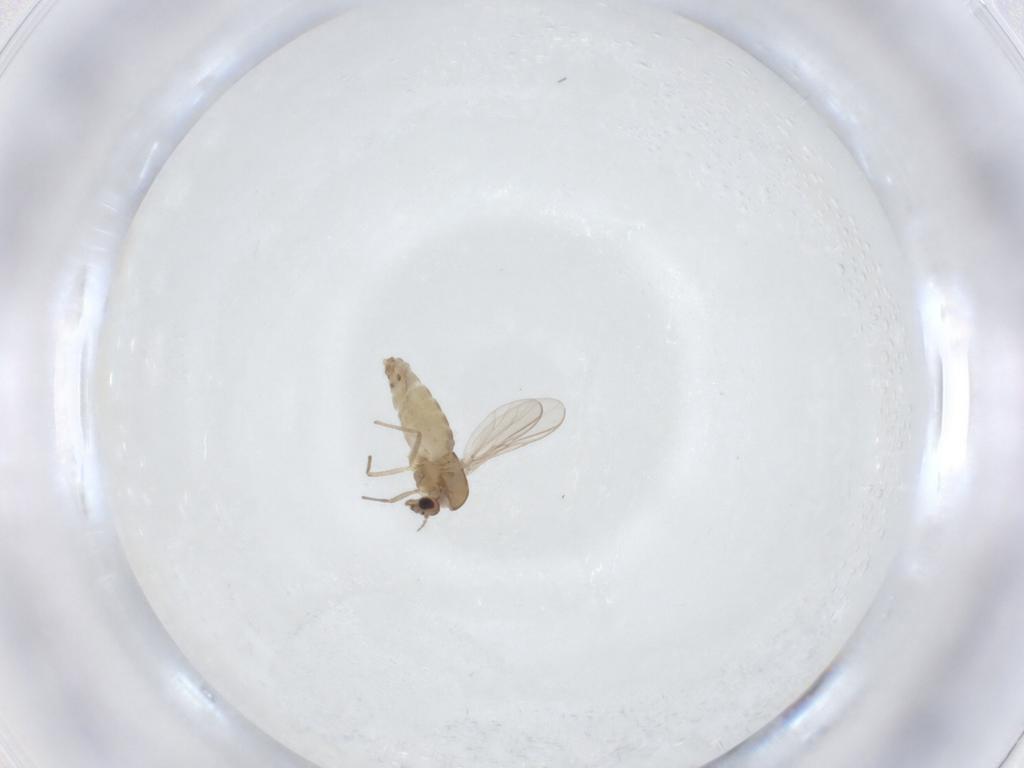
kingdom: Animalia
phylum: Arthropoda
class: Insecta
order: Diptera
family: Chironomidae
